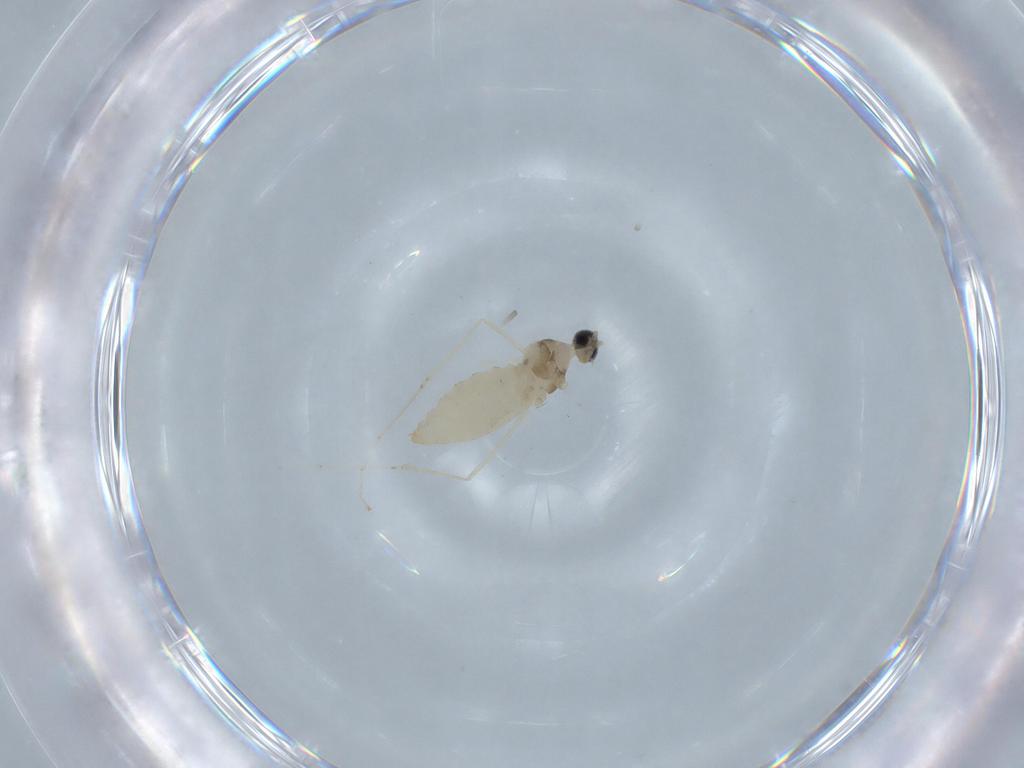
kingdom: Animalia
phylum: Arthropoda
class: Insecta
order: Diptera
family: Cecidomyiidae
